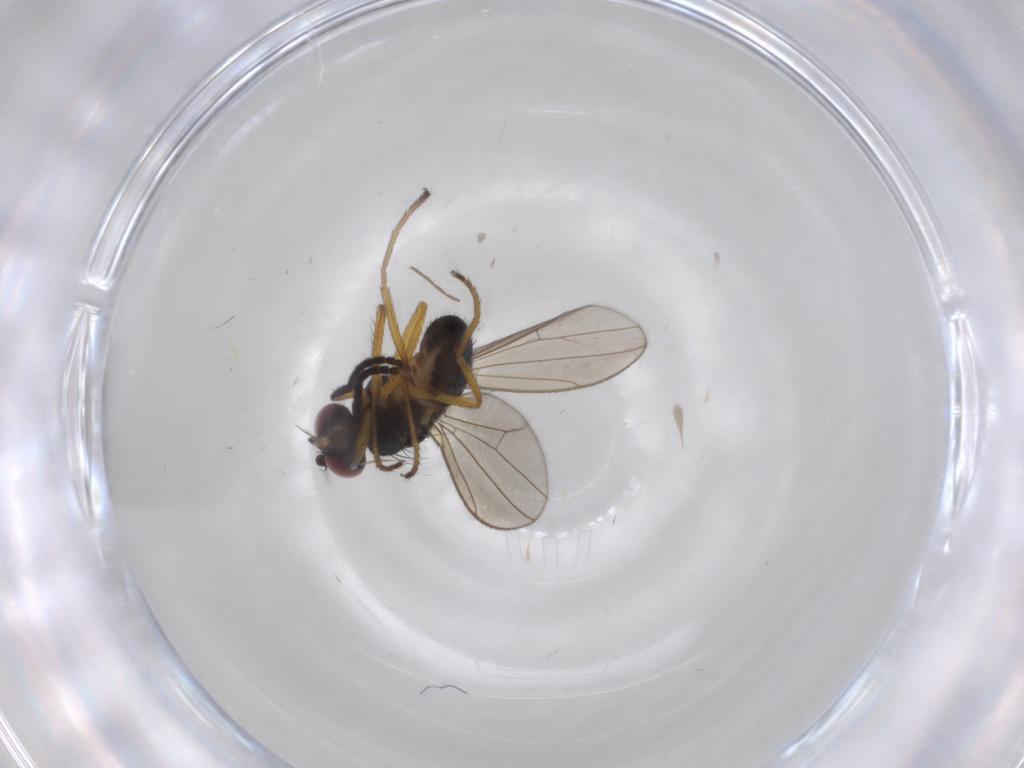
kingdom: Animalia
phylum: Arthropoda
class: Insecta
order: Diptera
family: Ephydridae
